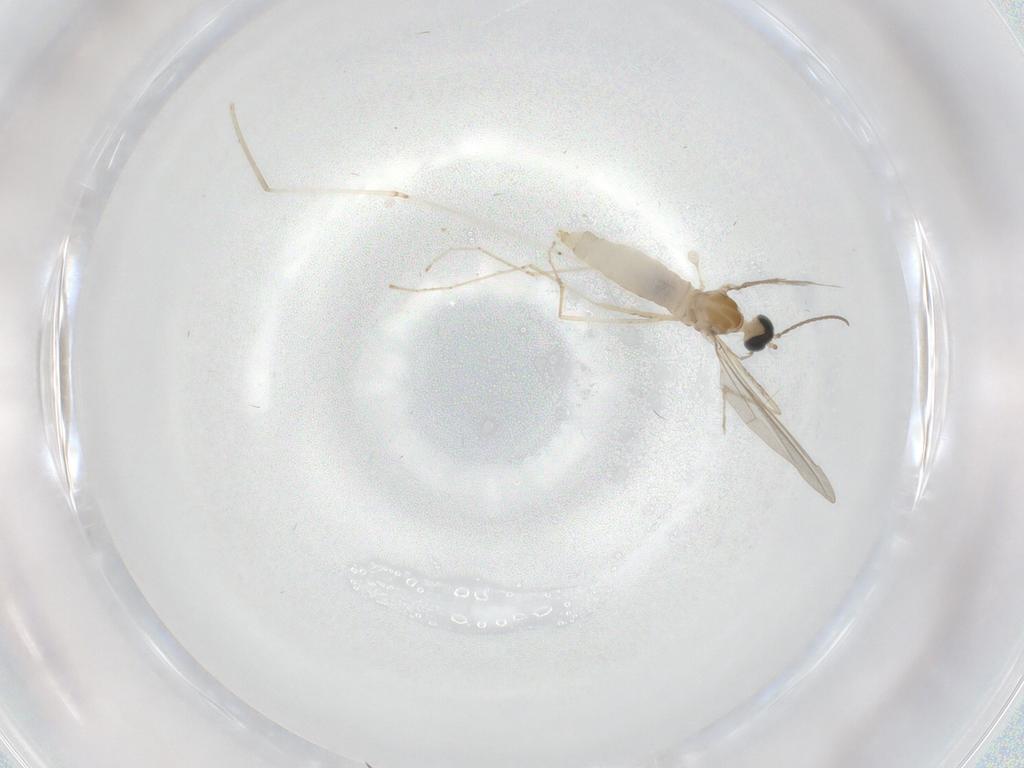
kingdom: Animalia
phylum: Arthropoda
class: Insecta
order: Diptera
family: Cecidomyiidae
